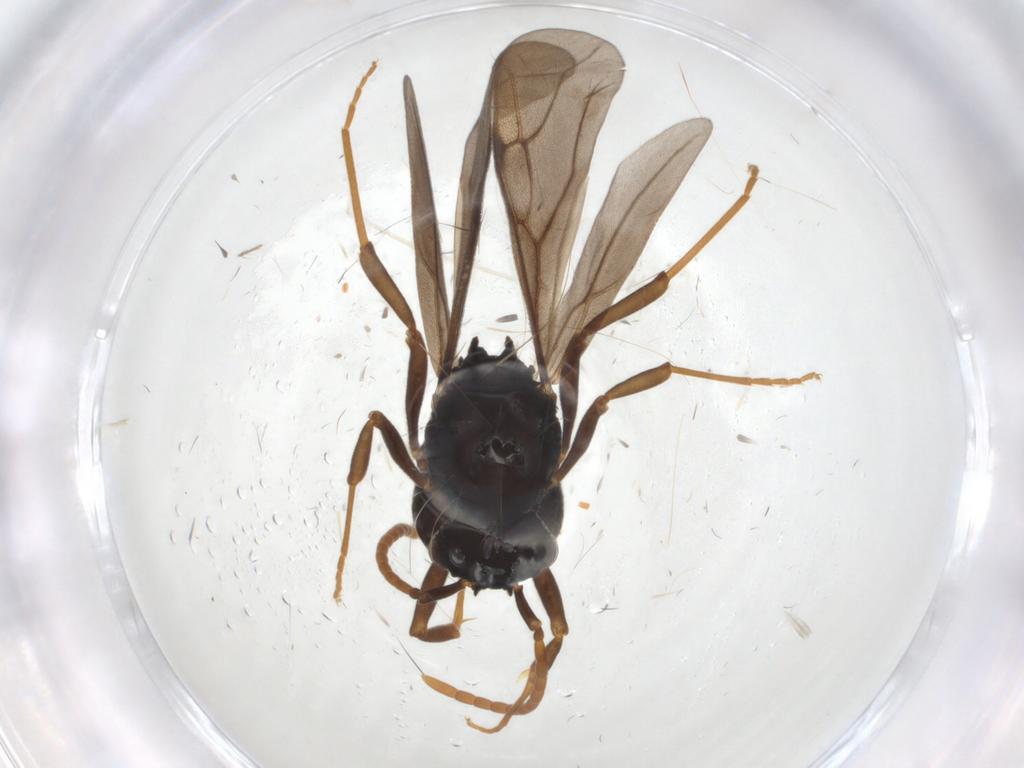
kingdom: Animalia
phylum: Arthropoda
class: Insecta
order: Hymenoptera
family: Formicidae
